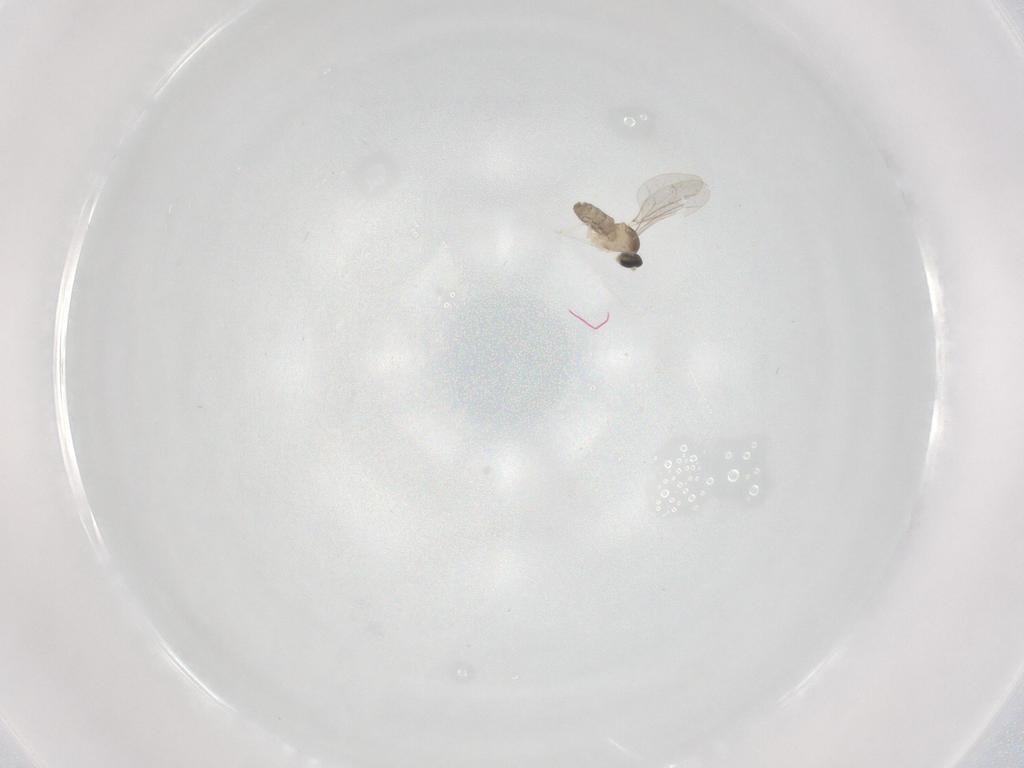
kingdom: Animalia
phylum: Arthropoda
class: Insecta
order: Diptera
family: Cecidomyiidae
